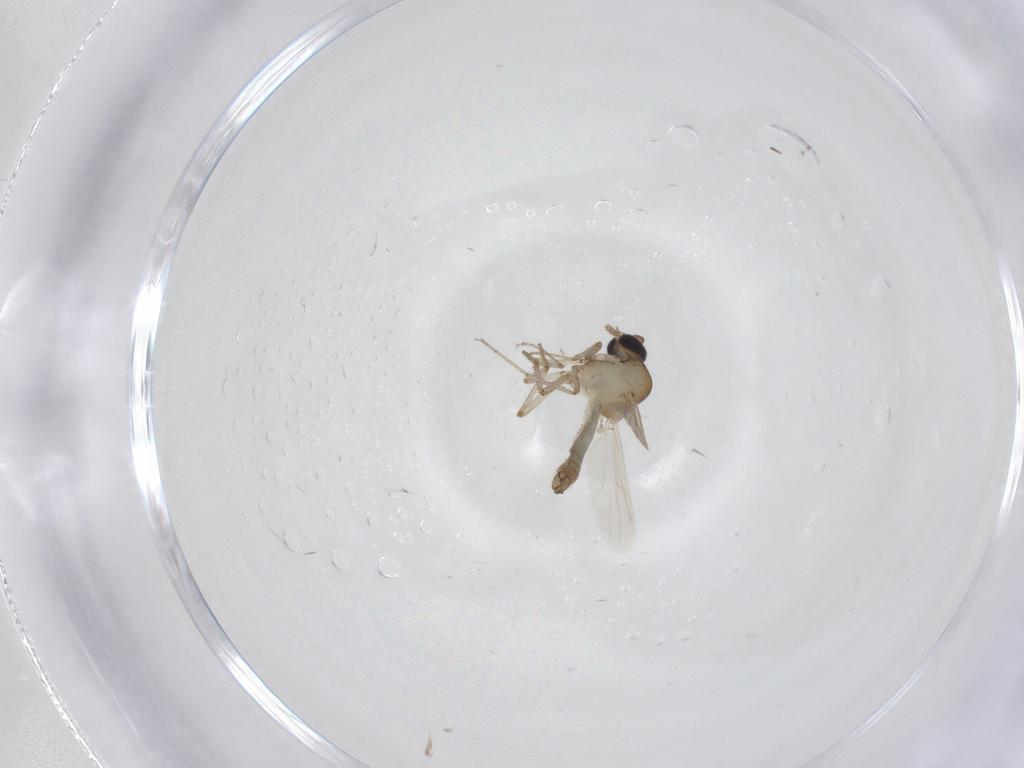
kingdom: Animalia
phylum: Arthropoda
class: Insecta
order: Diptera
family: Ceratopogonidae
